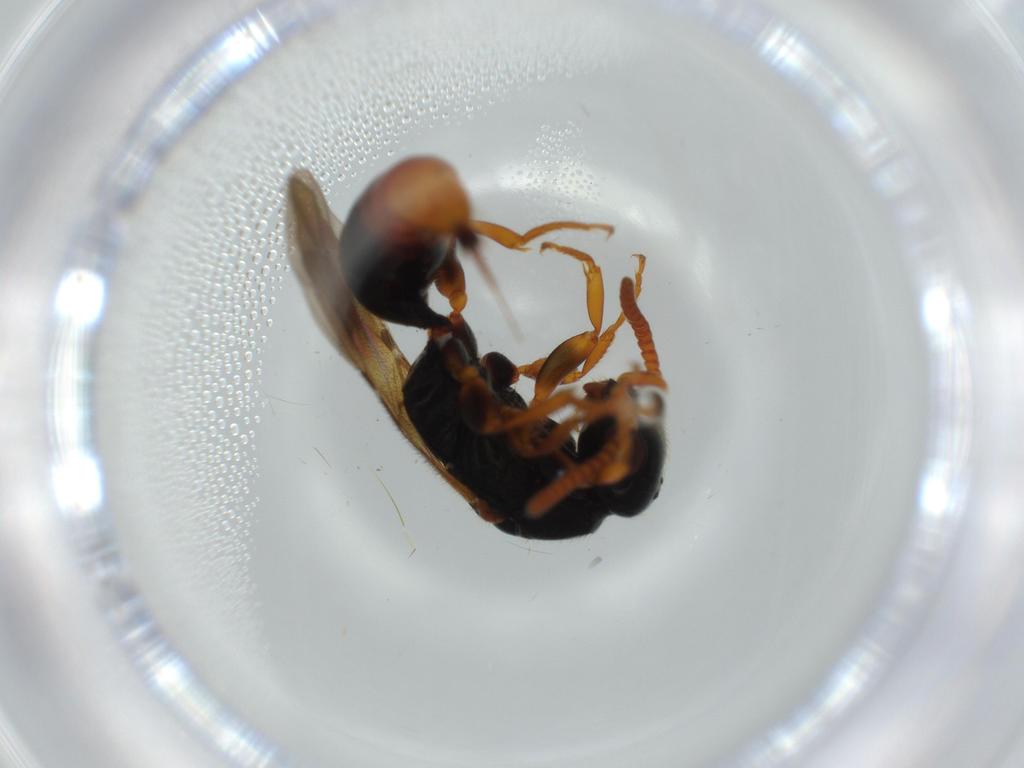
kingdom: Animalia
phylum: Arthropoda
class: Insecta
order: Hymenoptera
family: Bethylidae
